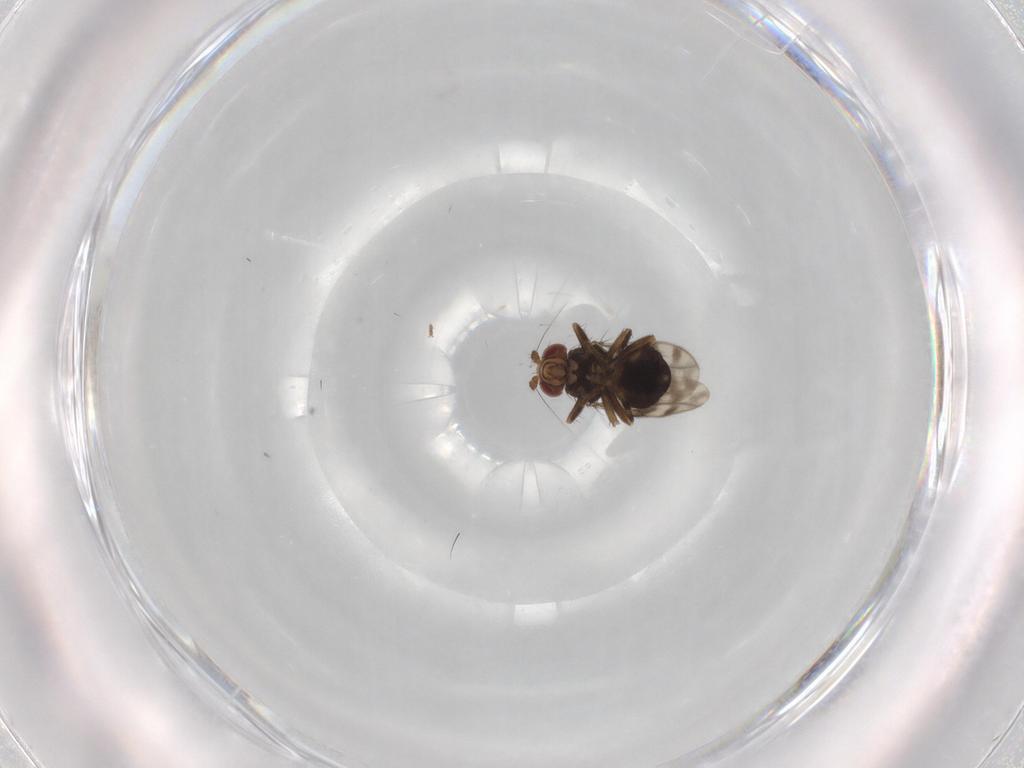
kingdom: Animalia
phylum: Arthropoda
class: Insecta
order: Diptera
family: Sphaeroceridae
